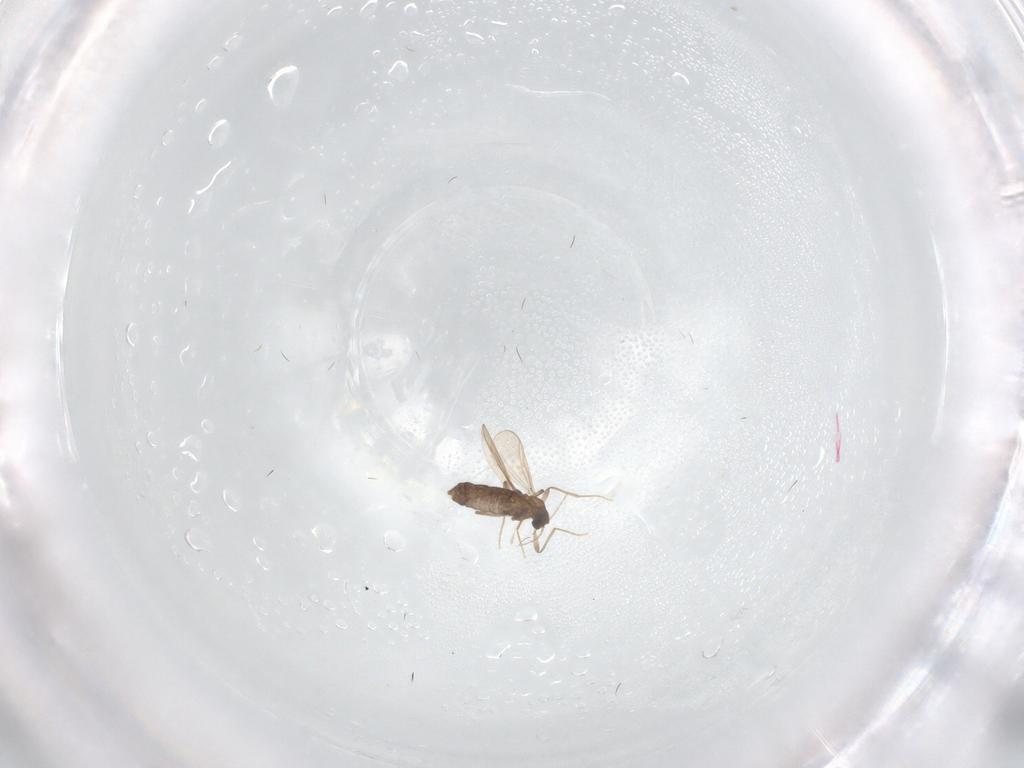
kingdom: Animalia
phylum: Arthropoda
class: Insecta
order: Diptera
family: Chironomidae
